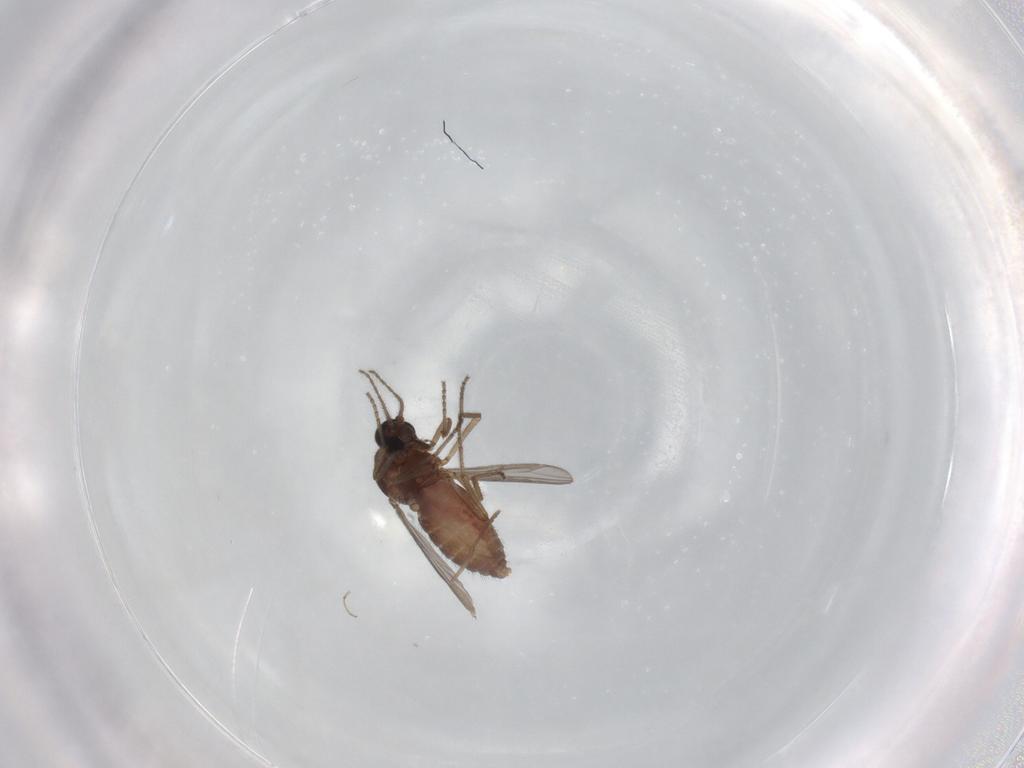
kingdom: Animalia
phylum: Arthropoda
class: Insecta
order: Diptera
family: Ceratopogonidae
